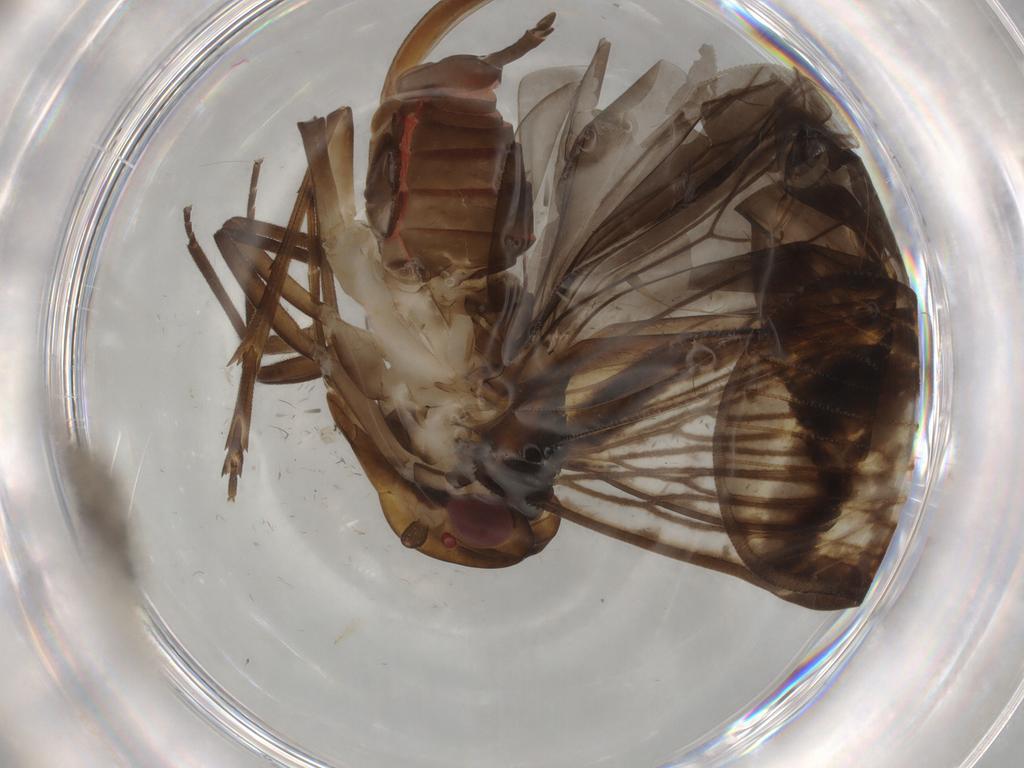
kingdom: Animalia
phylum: Arthropoda
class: Insecta
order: Hemiptera
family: Cixiidae
